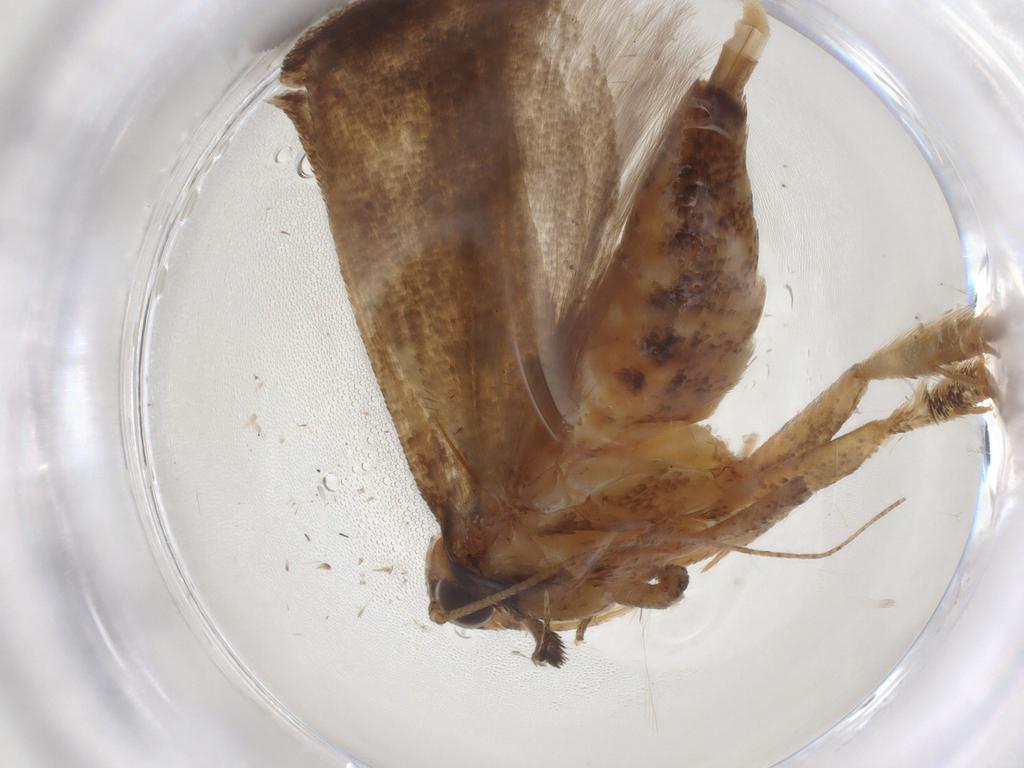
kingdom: Animalia
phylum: Arthropoda
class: Insecta
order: Lepidoptera
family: Gelechiidae
